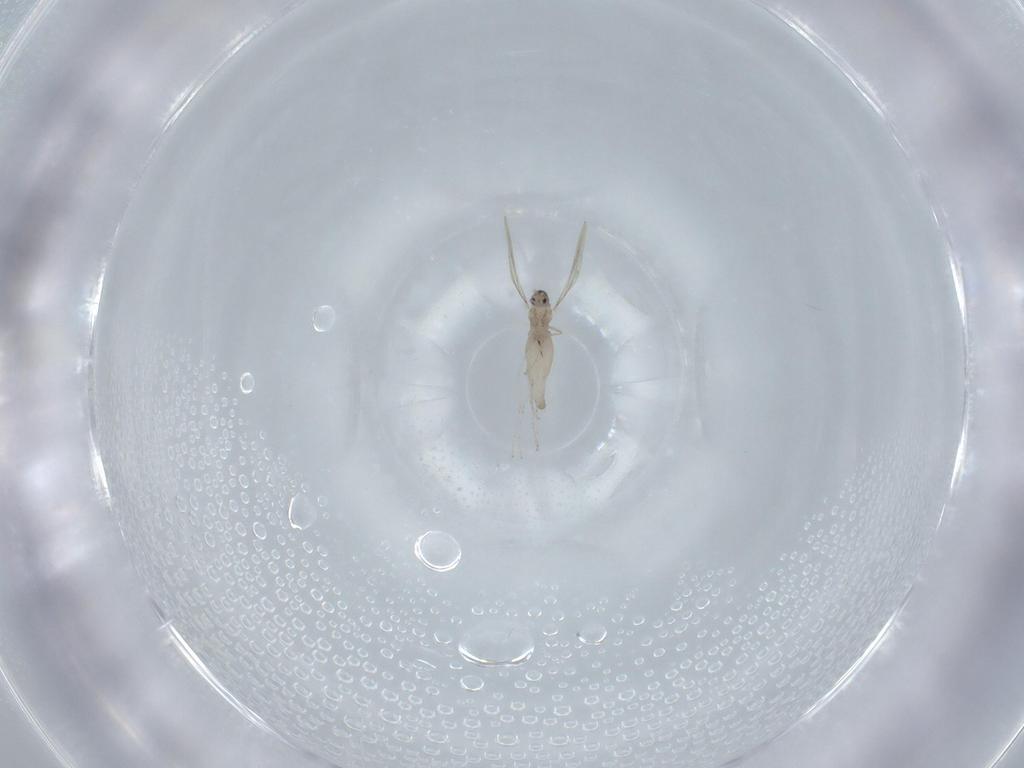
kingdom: Animalia
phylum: Arthropoda
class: Insecta
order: Diptera
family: Cecidomyiidae
